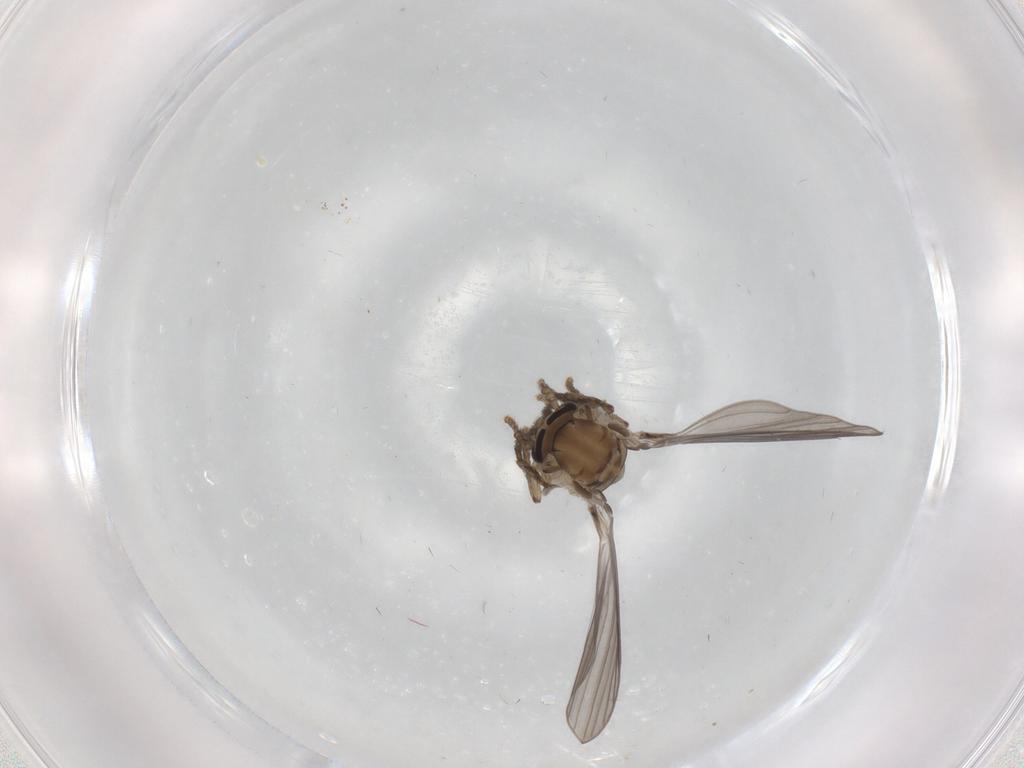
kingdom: Animalia
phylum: Arthropoda
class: Insecta
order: Diptera
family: Psychodidae
